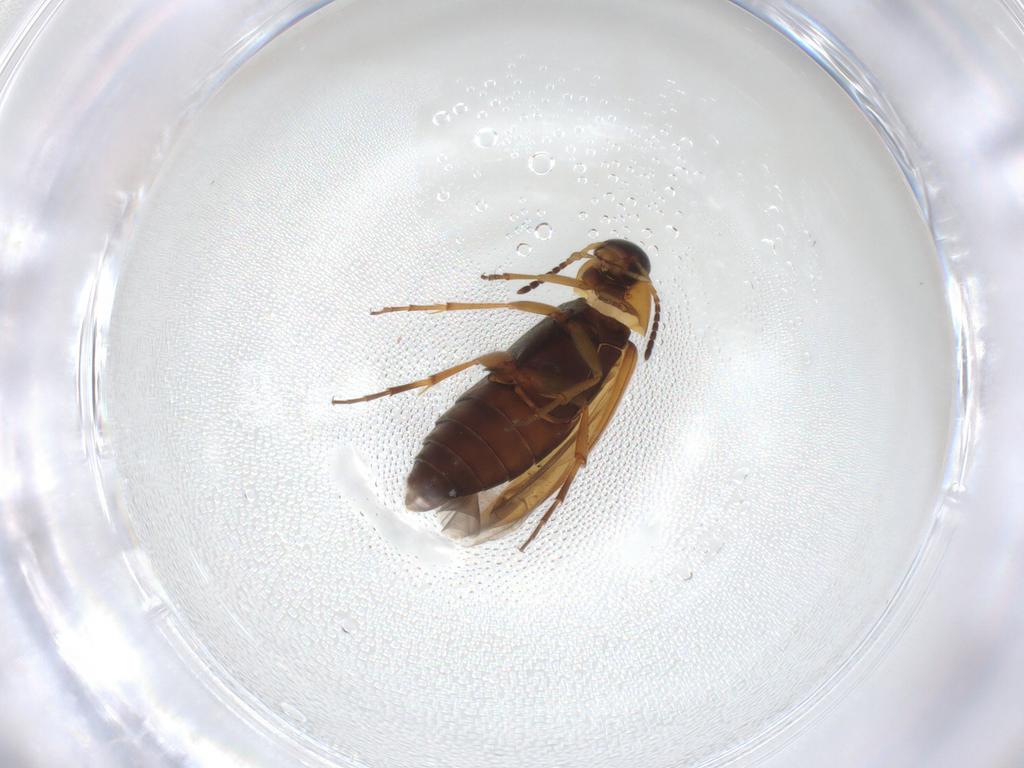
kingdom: Animalia
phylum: Arthropoda
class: Insecta
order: Coleoptera
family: Scraptiidae
